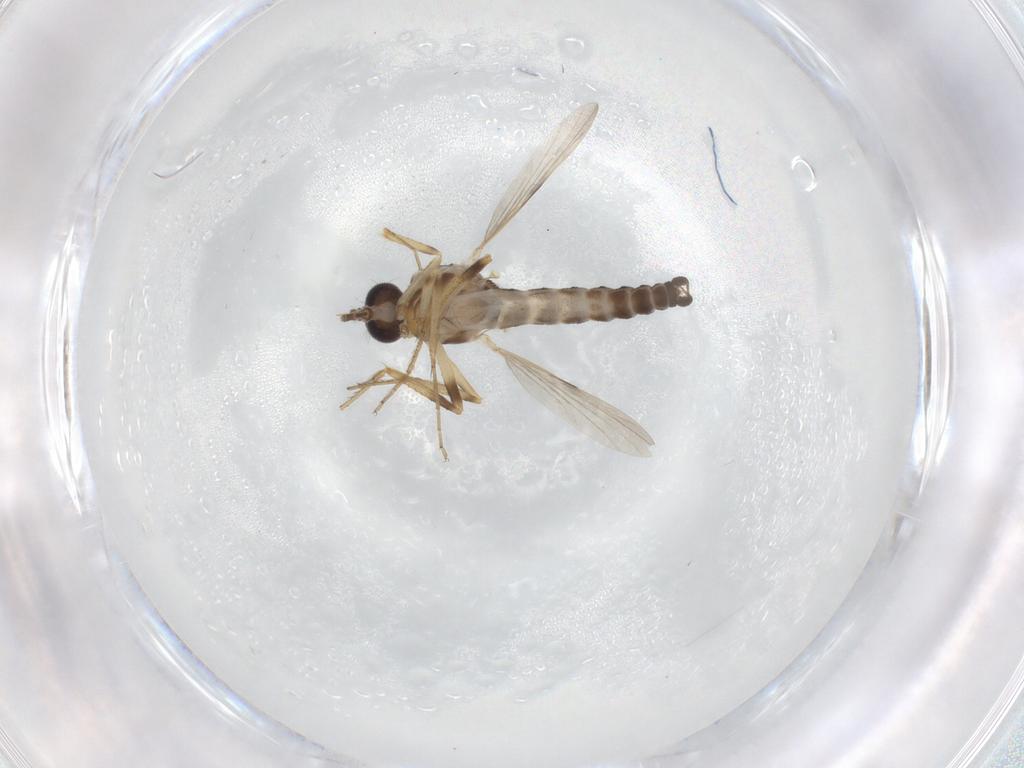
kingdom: Animalia
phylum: Arthropoda
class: Insecta
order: Diptera
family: Ceratopogonidae
